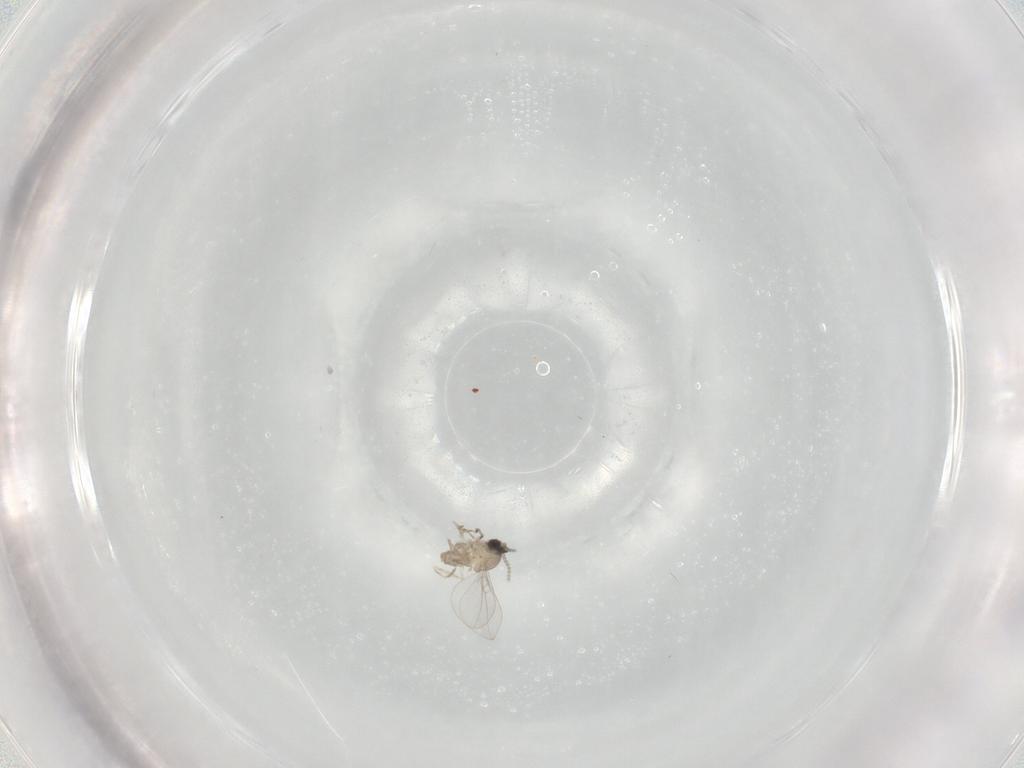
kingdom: Animalia
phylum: Arthropoda
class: Insecta
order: Diptera
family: Cecidomyiidae
